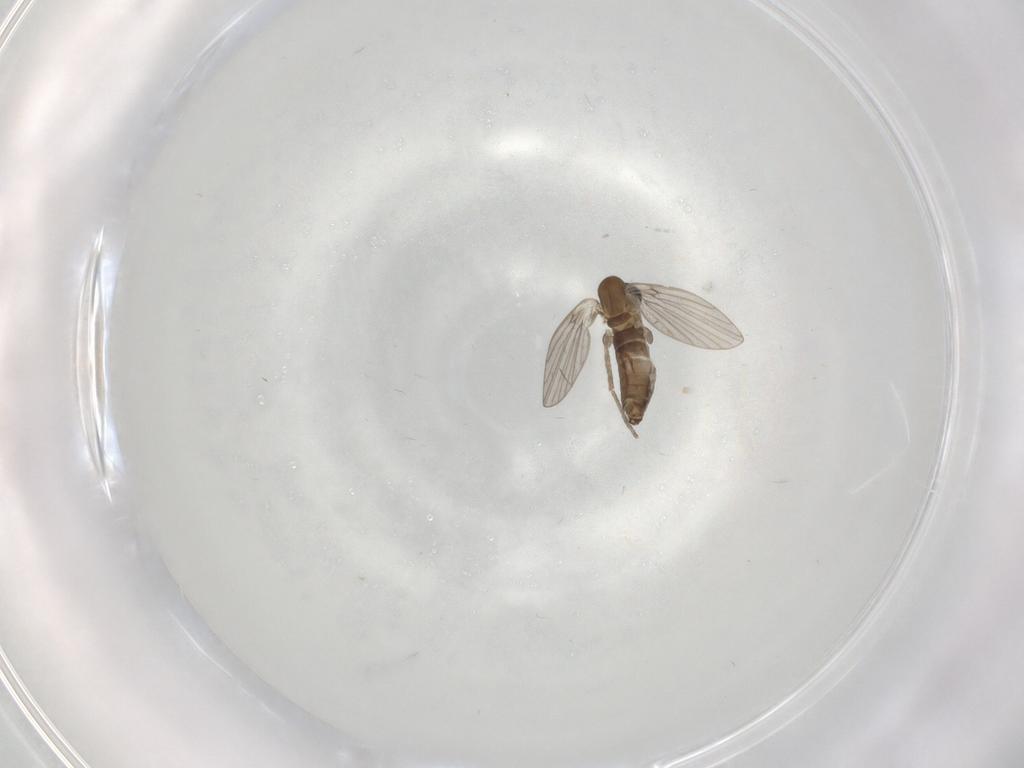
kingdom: Animalia
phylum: Arthropoda
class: Insecta
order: Diptera
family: Phoridae
